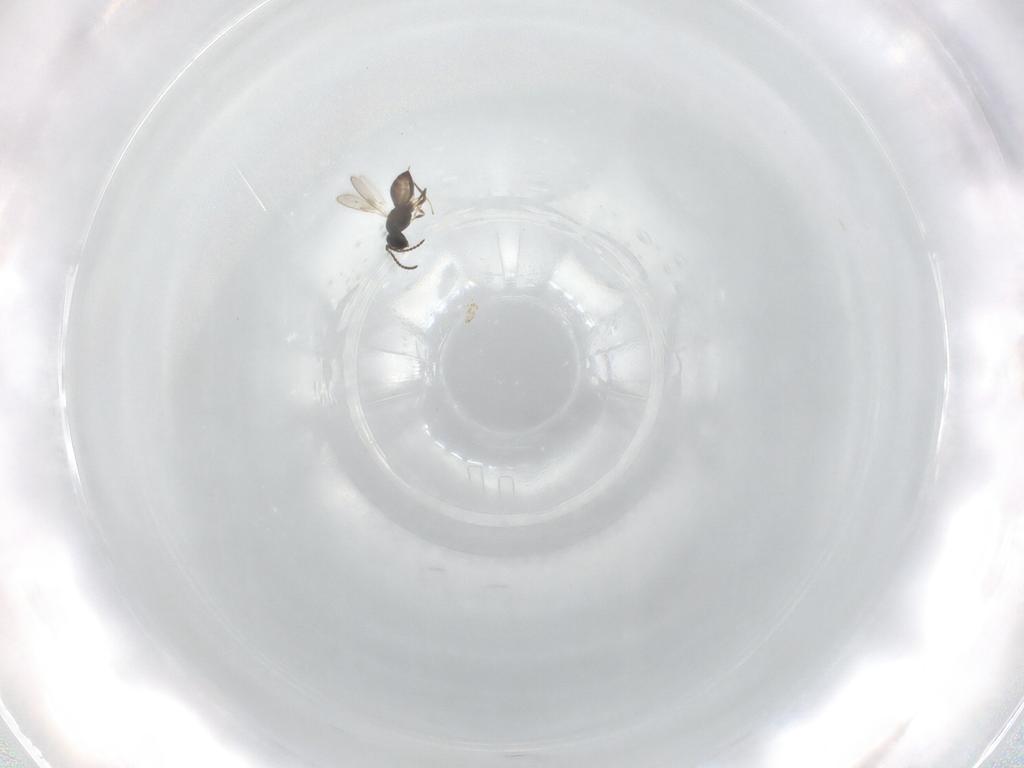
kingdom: Animalia
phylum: Arthropoda
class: Insecta
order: Hymenoptera
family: Scelionidae
